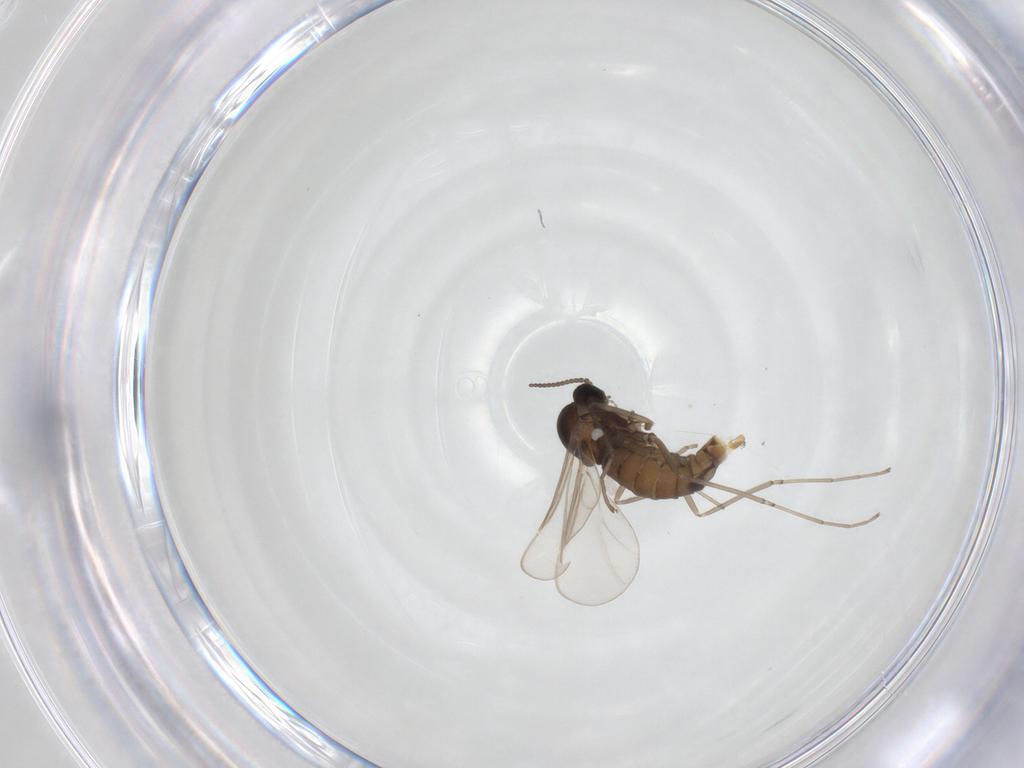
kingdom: Animalia
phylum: Arthropoda
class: Insecta
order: Diptera
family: Cecidomyiidae
